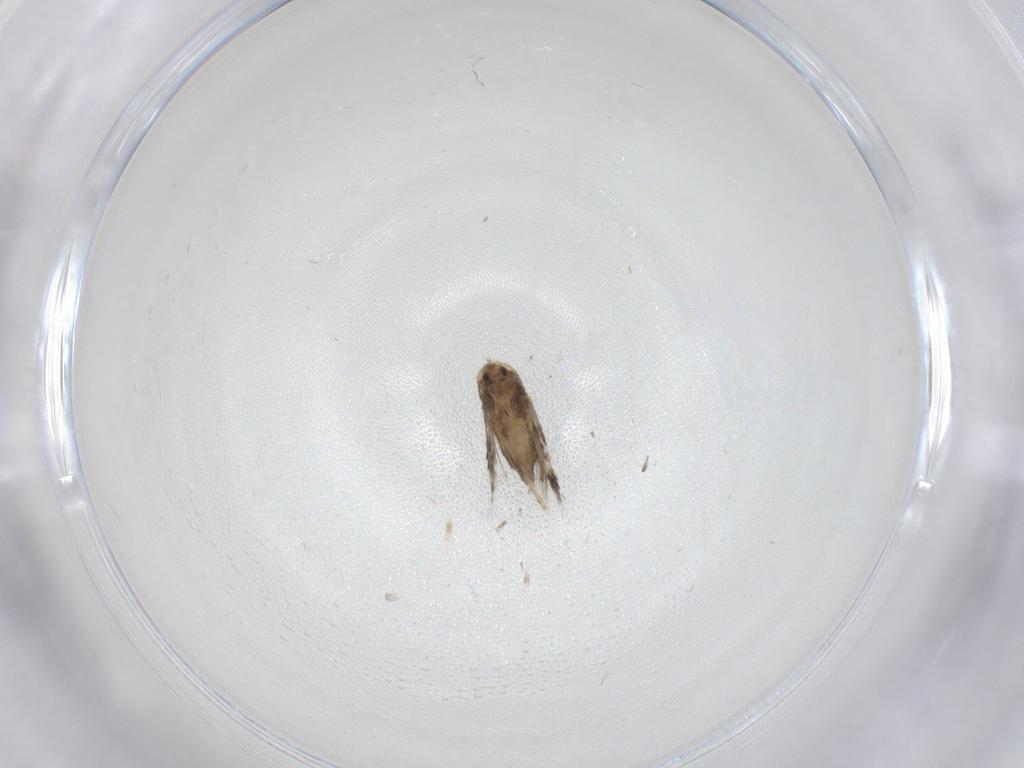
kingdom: Animalia
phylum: Arthropoda
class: Insecta
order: Lepidoptera
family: Nepticulidae
